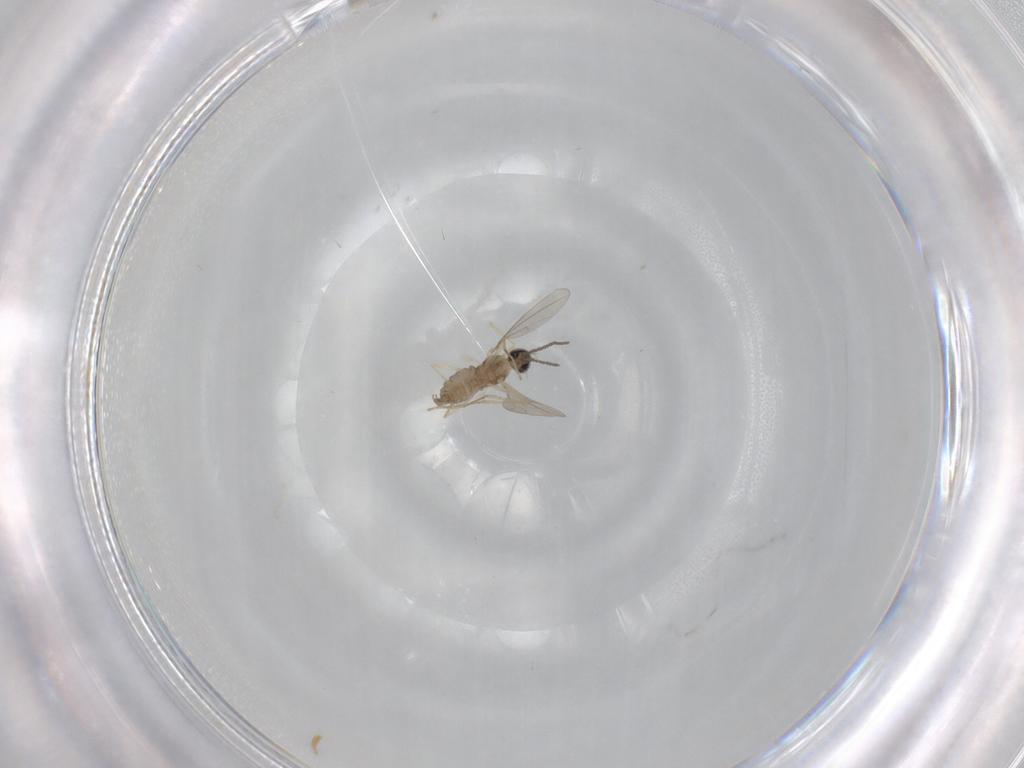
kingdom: Animalia
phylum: Arthropoda
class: Insecta
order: Diptera
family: Cecidomyiidae
